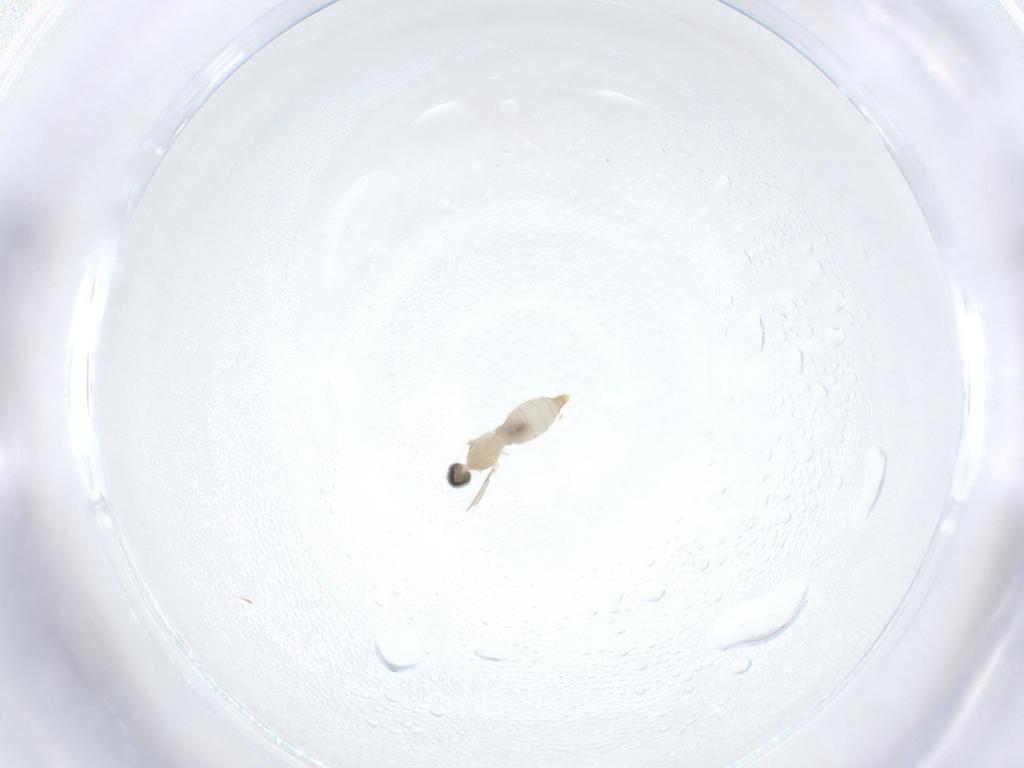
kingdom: Animalia
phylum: Arthropoda
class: Insecta
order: Diptera
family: Cecidomyiidae
